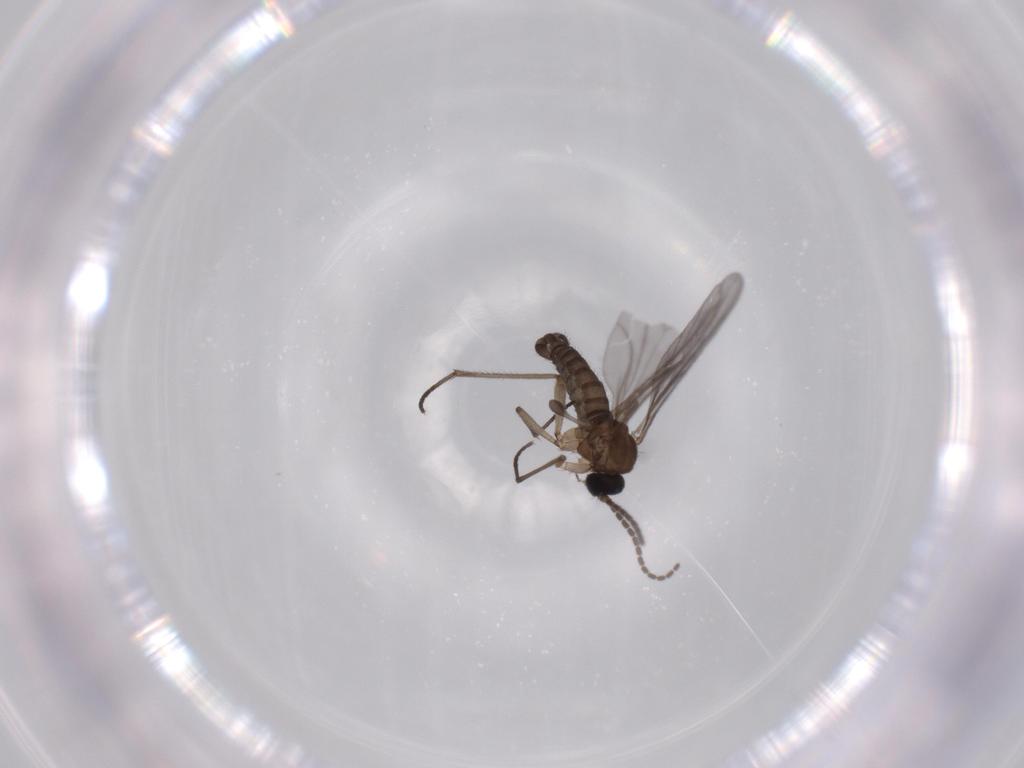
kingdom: Animalia
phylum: Arthropoda
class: Insecta
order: Diptera
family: Sciaridae
